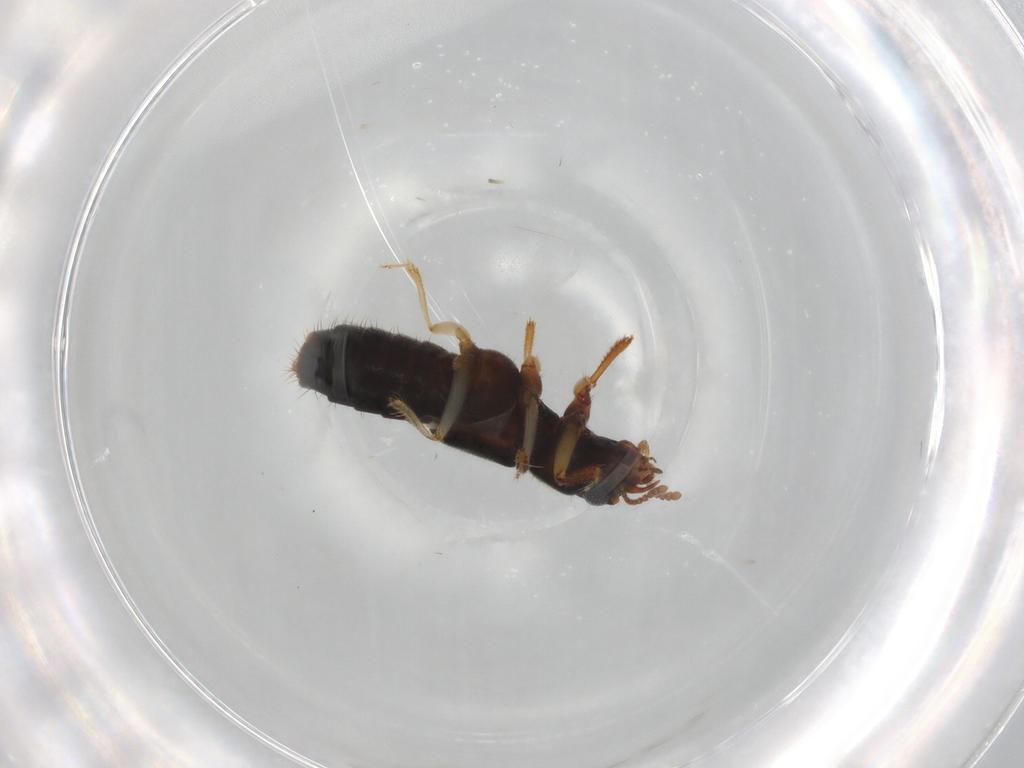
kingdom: Animalia
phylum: Arthropoda
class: Insecta
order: Coleoptera
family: Staphylinidae
